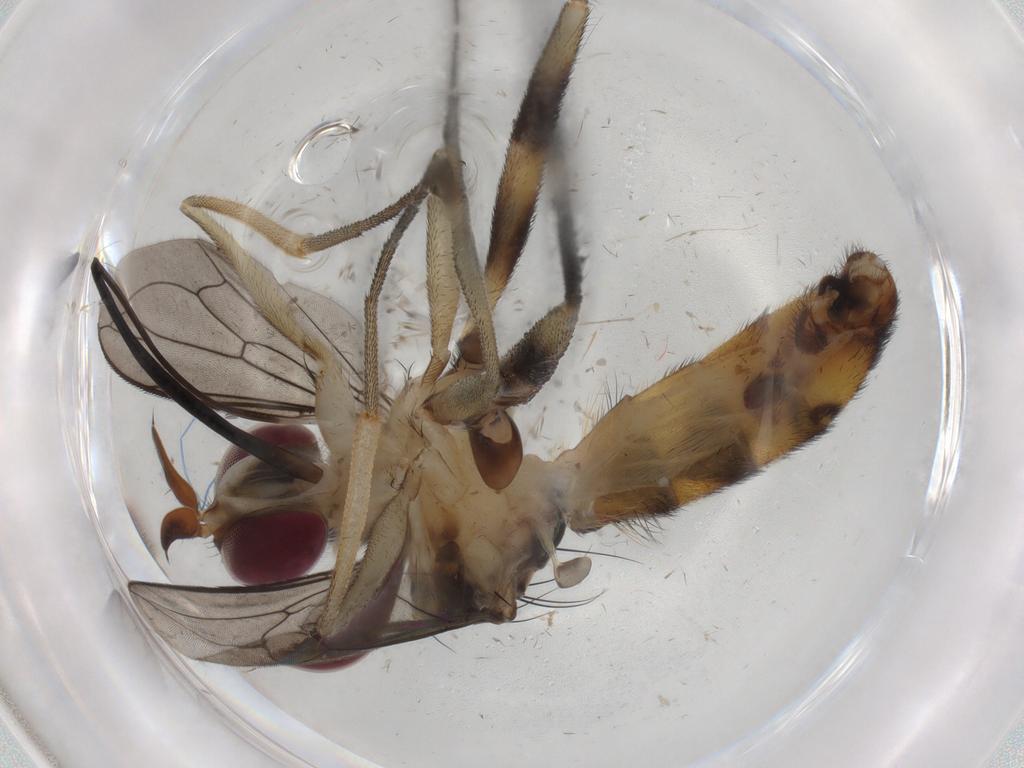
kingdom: Animalia
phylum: Arthropoda
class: Insecta
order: Diptera
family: Conopidae
